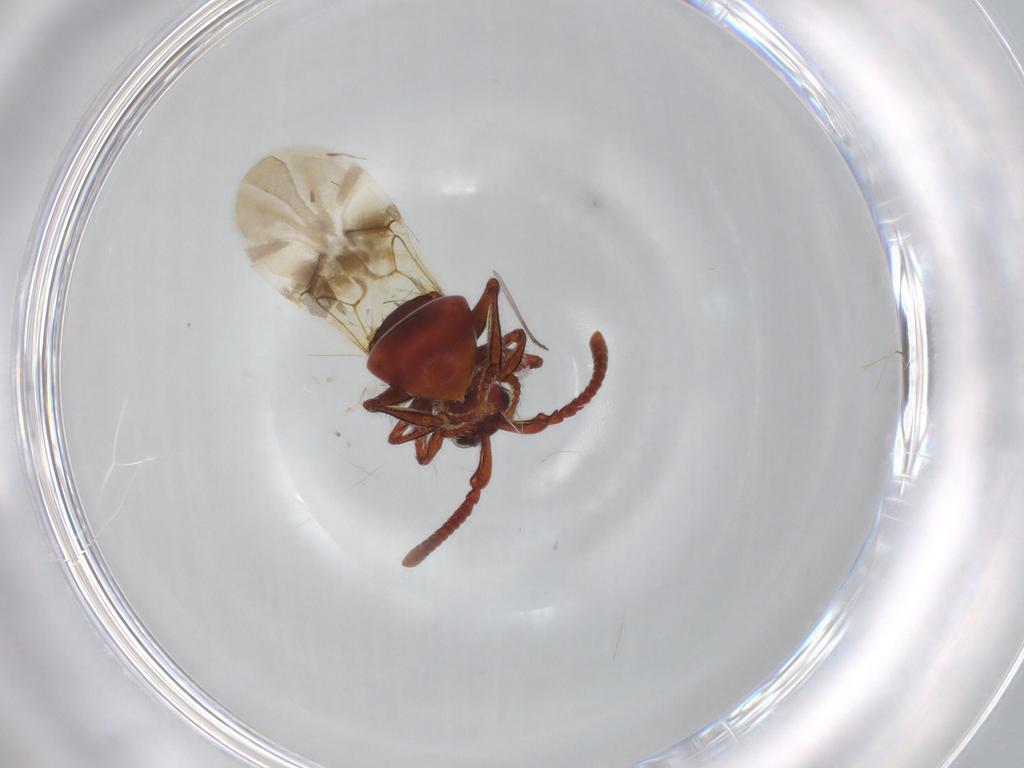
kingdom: Animalia
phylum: Arthropoda
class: Insecta
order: Hymenoptera
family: Chrysididae
